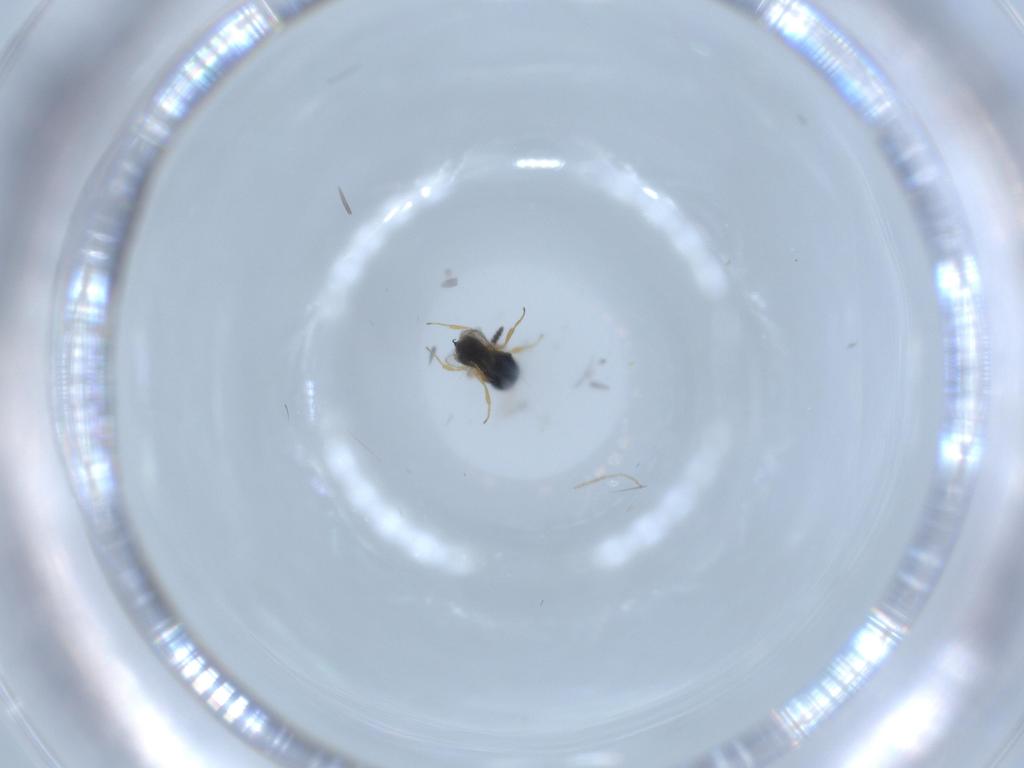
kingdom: Animalia
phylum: Arthropoda
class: Insecta
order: Hymenoptera
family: Scelionidae
